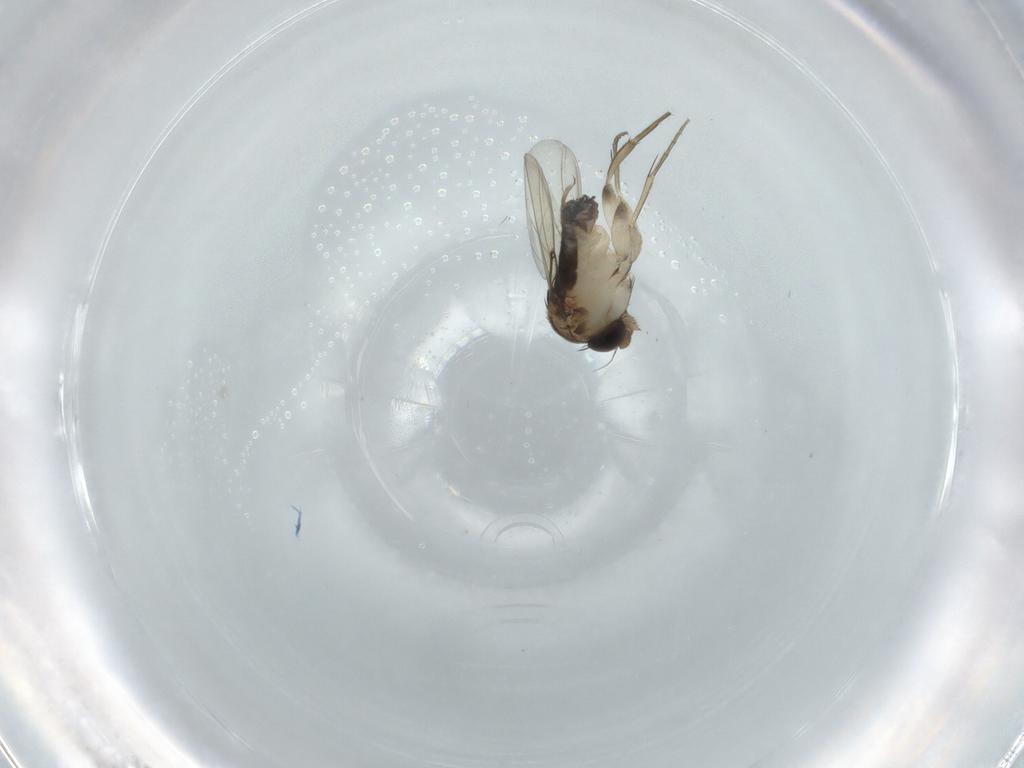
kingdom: Animalia
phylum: Arthropoda
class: Insecta
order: Diptera
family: Phoridae
